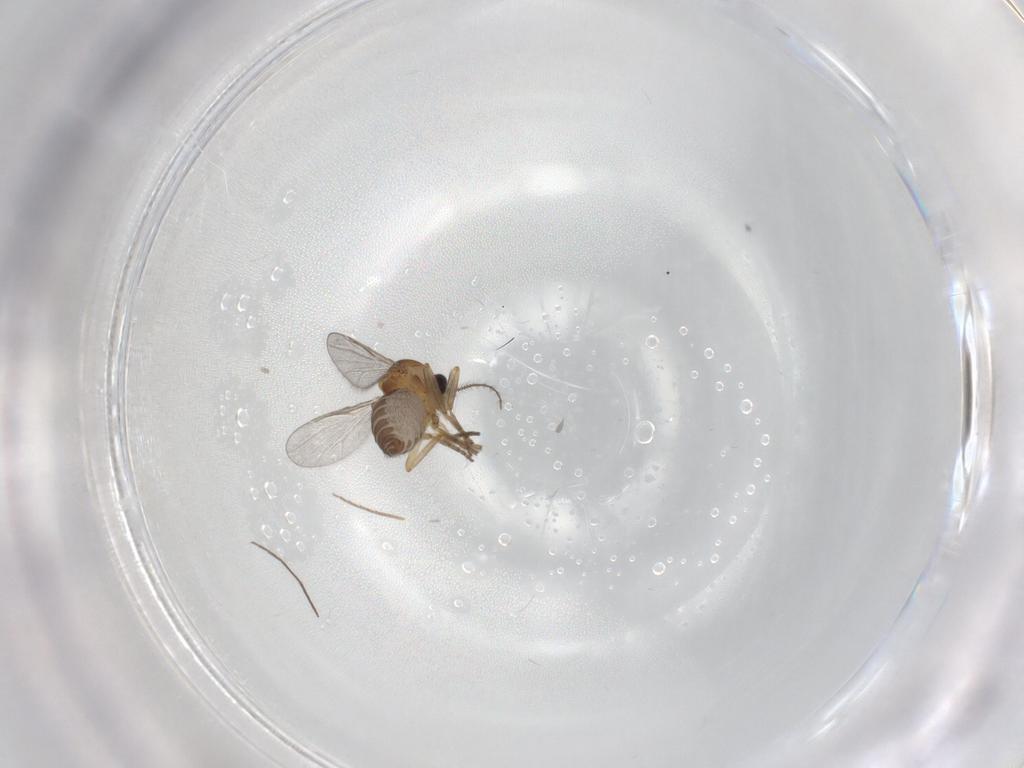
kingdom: Animalia
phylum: Arthropoda
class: Insecta
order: Diptera
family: Ceratopogonidae
